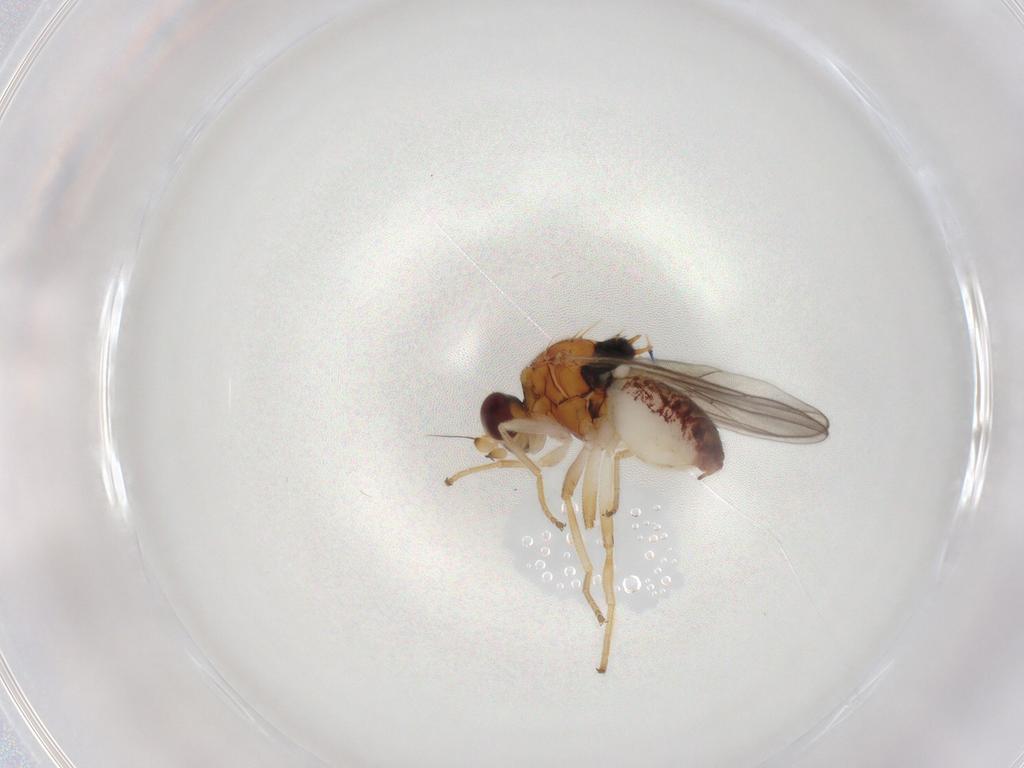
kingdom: Animalia
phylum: Arthropoda
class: Insecta
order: Diptera
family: Chloropidae
